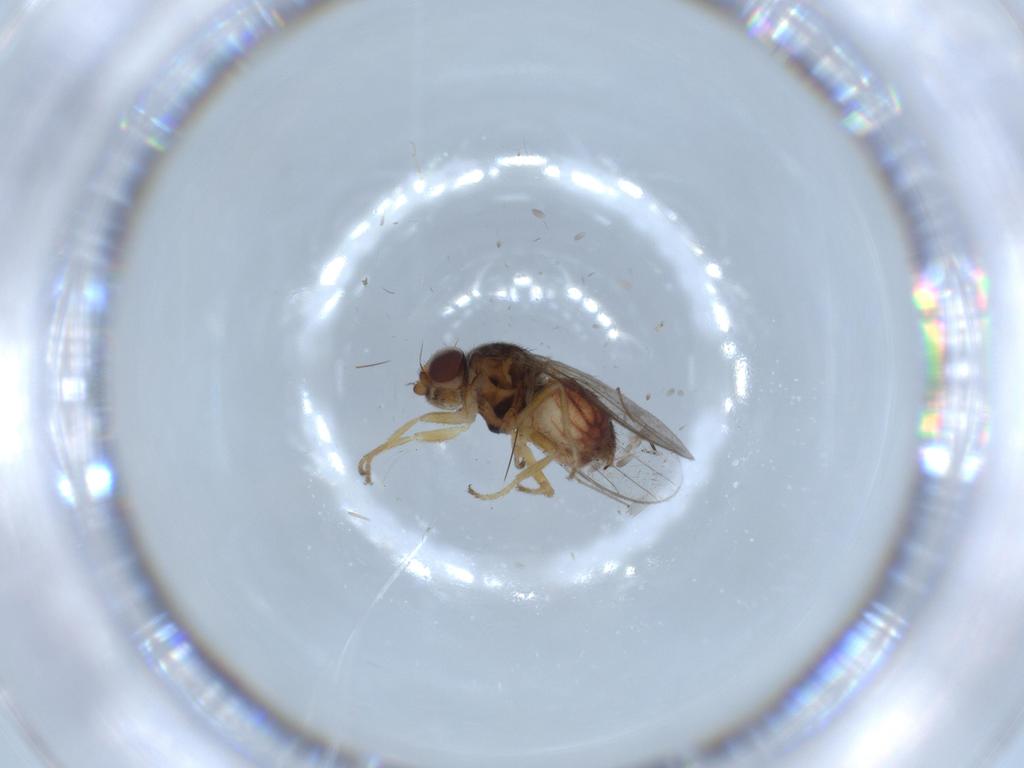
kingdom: Animalia
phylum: Arthropoda
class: Insecta
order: Diptera
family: Chloropidae
